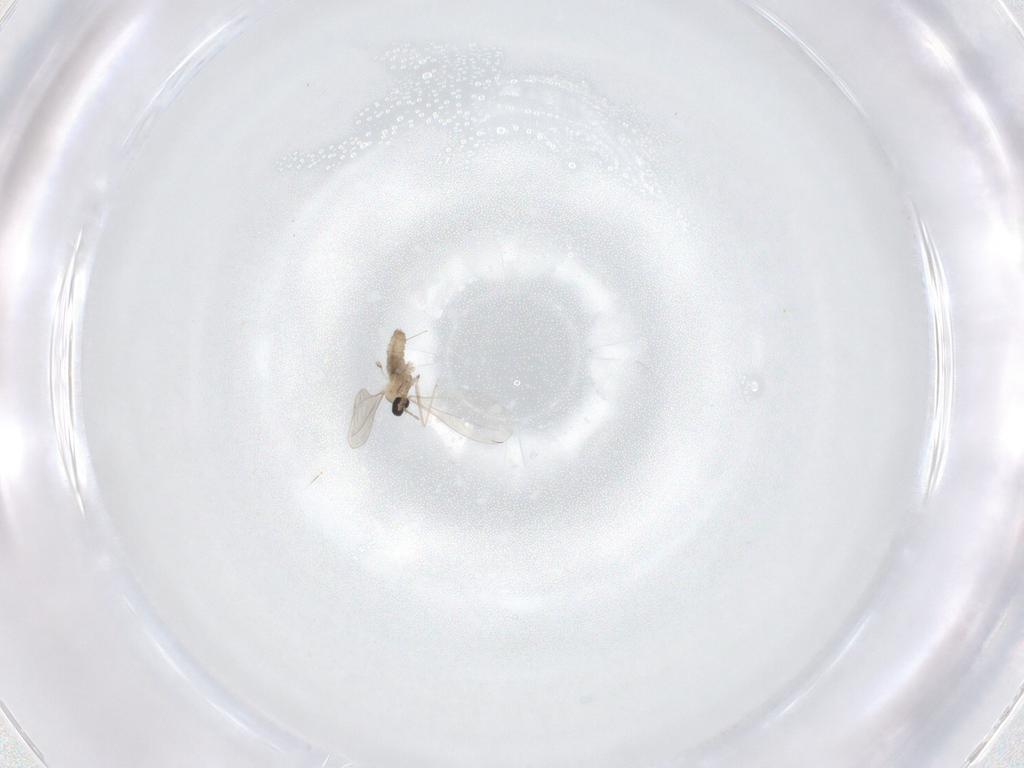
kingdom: Animalia
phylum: Arthropoda
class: Insecta
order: Diptera
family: Cecidomyiidae
